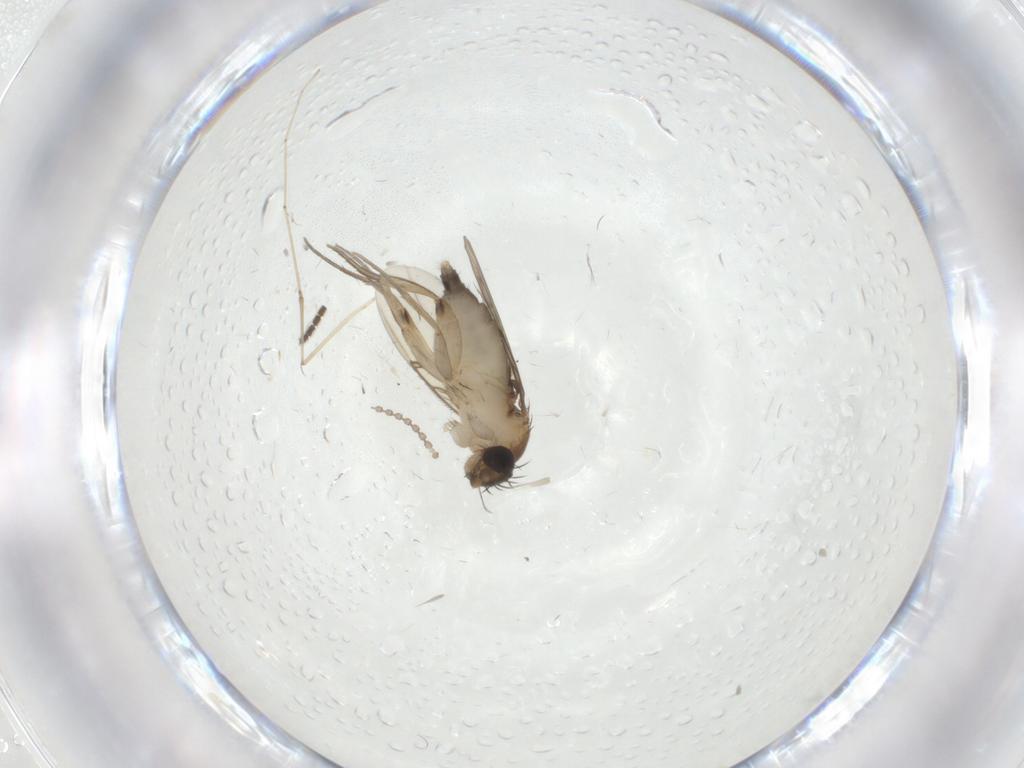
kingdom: Animalia
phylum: Arthropoda
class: Insecta
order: Diptera
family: Phoridae
